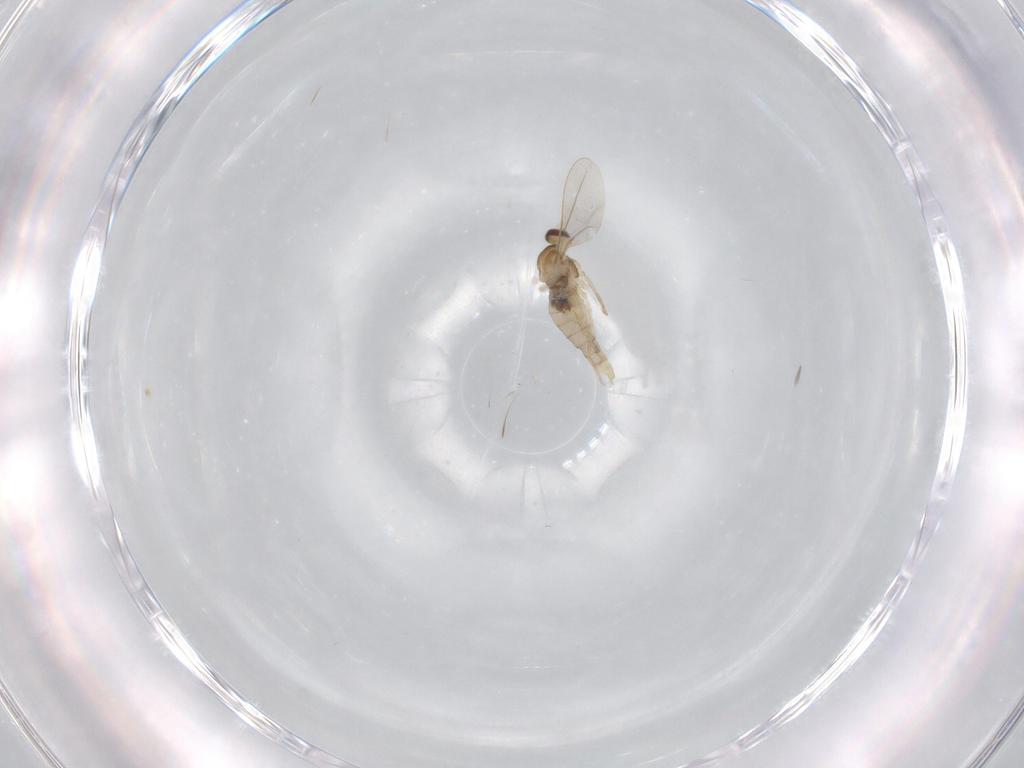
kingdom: Animalia
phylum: Arthropoda
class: Insecta
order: Diptera
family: Cecidomyiidae
